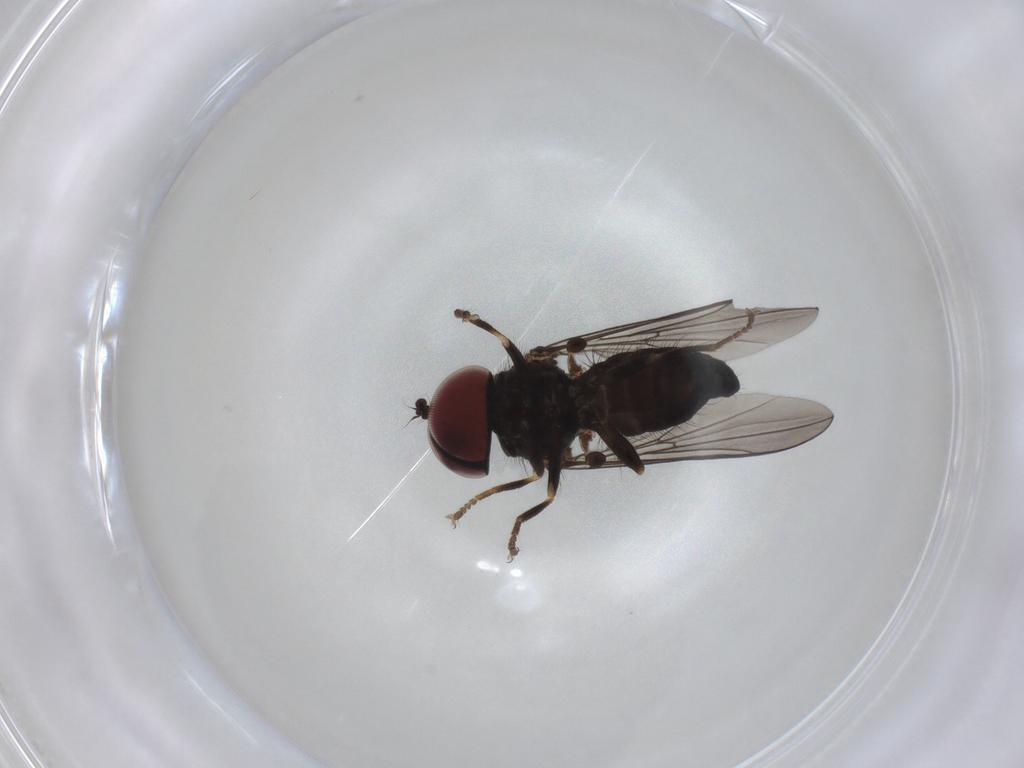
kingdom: Animalia
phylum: Arthropoda
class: Insecta
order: Diptera
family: Pipunculidae
